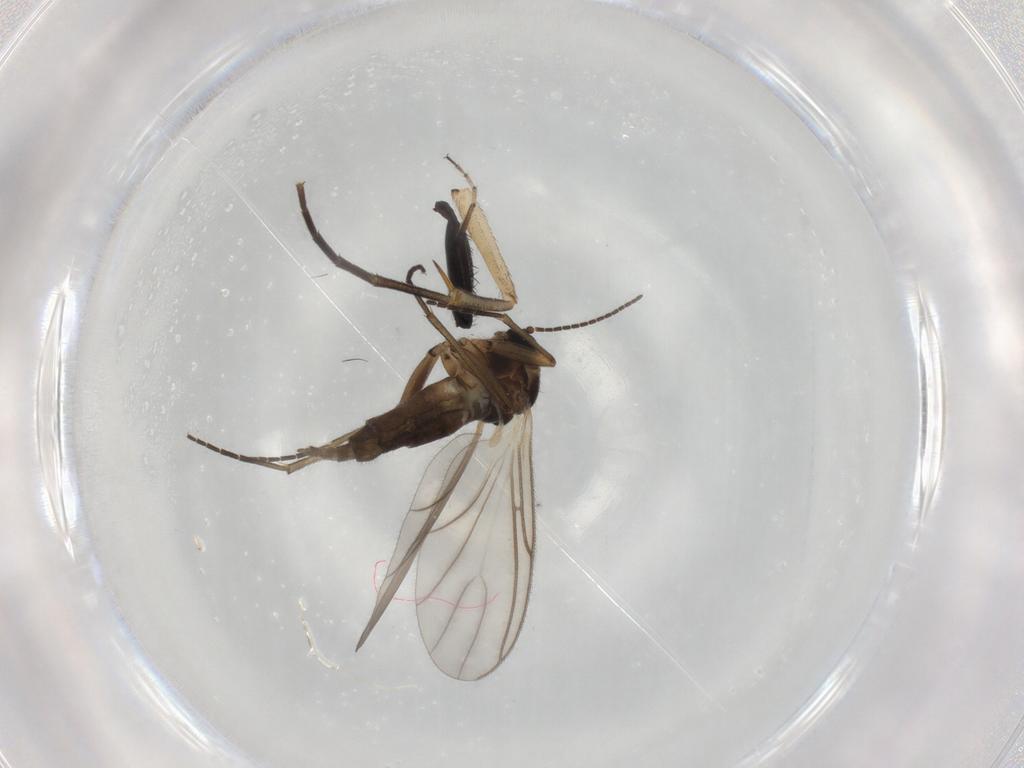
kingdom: Animalia
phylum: Arthropoda
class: Insecta
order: Diptera
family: Mycetophilidae
